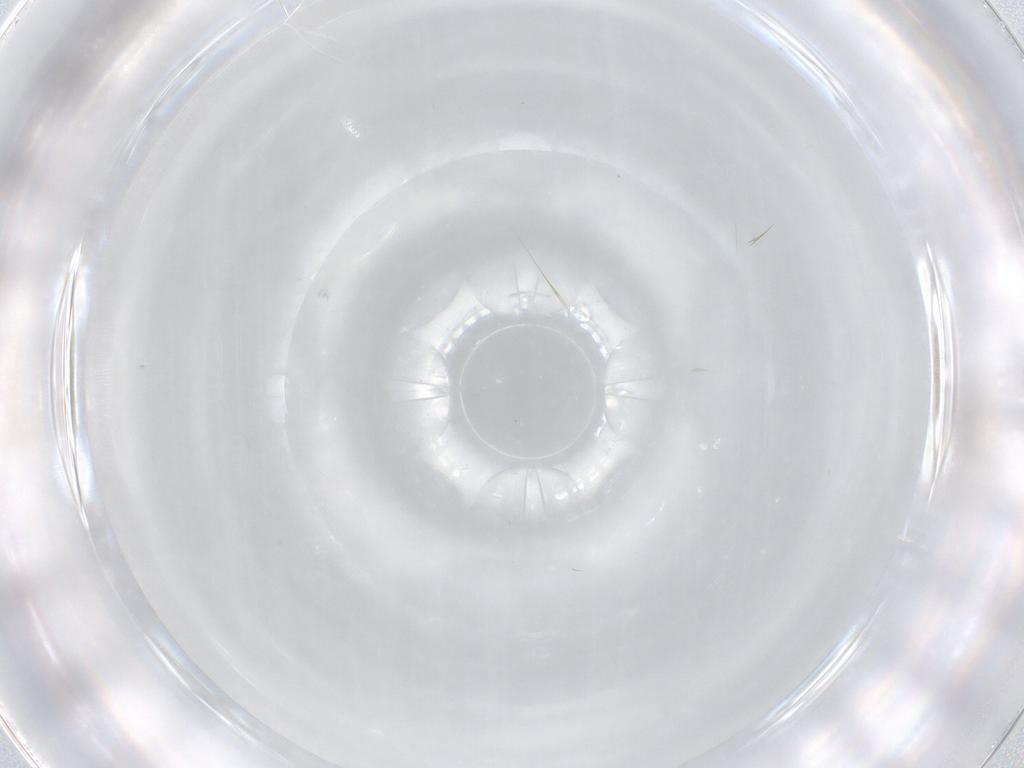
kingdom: Animalia
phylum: Arthropoda
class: Insecta
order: Diptera
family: Cecidomyiidae
